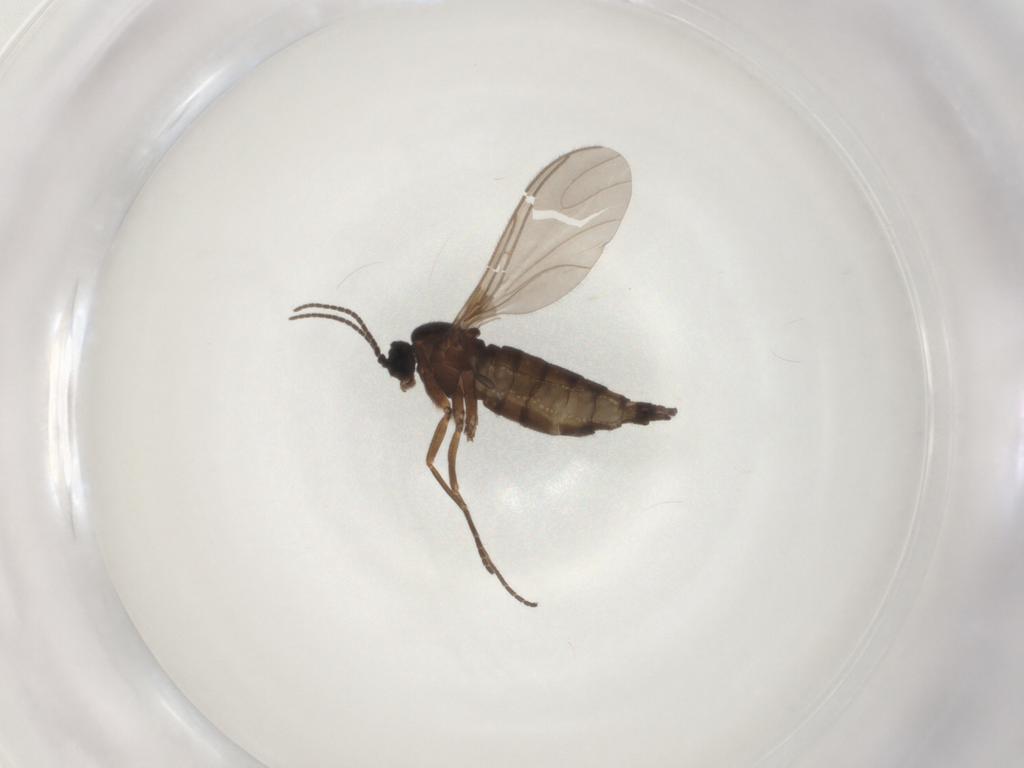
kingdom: Animalia
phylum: Arthropoda
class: Insecta
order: Diptera
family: Sciaridae
